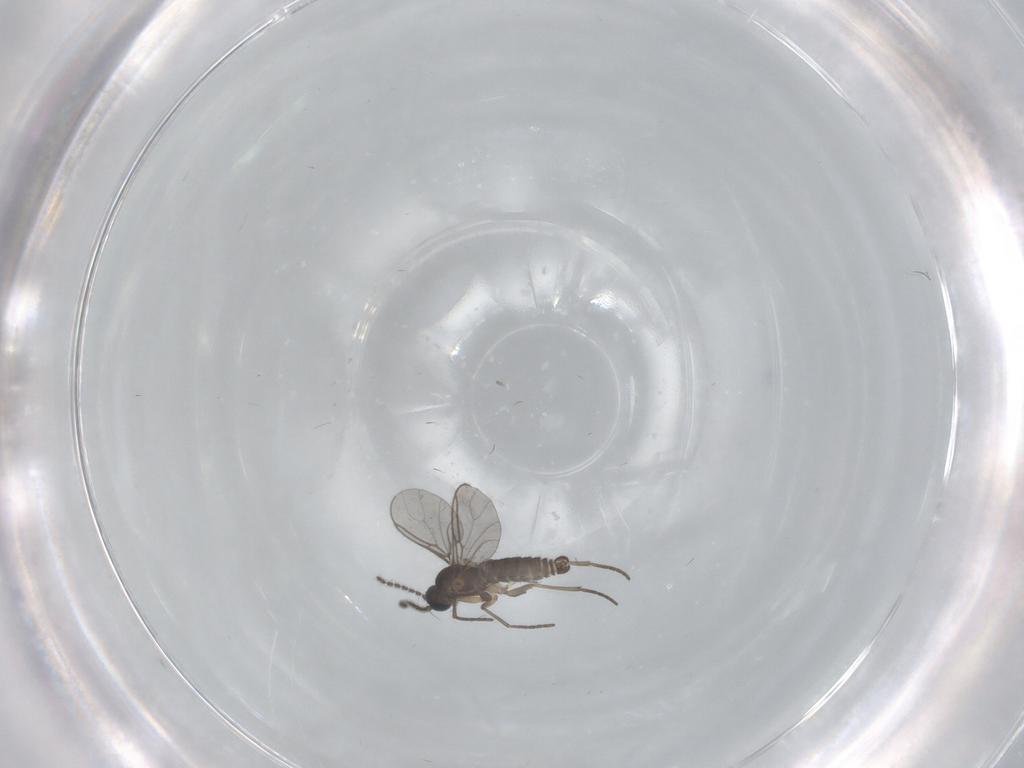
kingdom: Animalia
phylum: Arthropoda
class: Insecta
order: Diptera
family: Sciaridae
